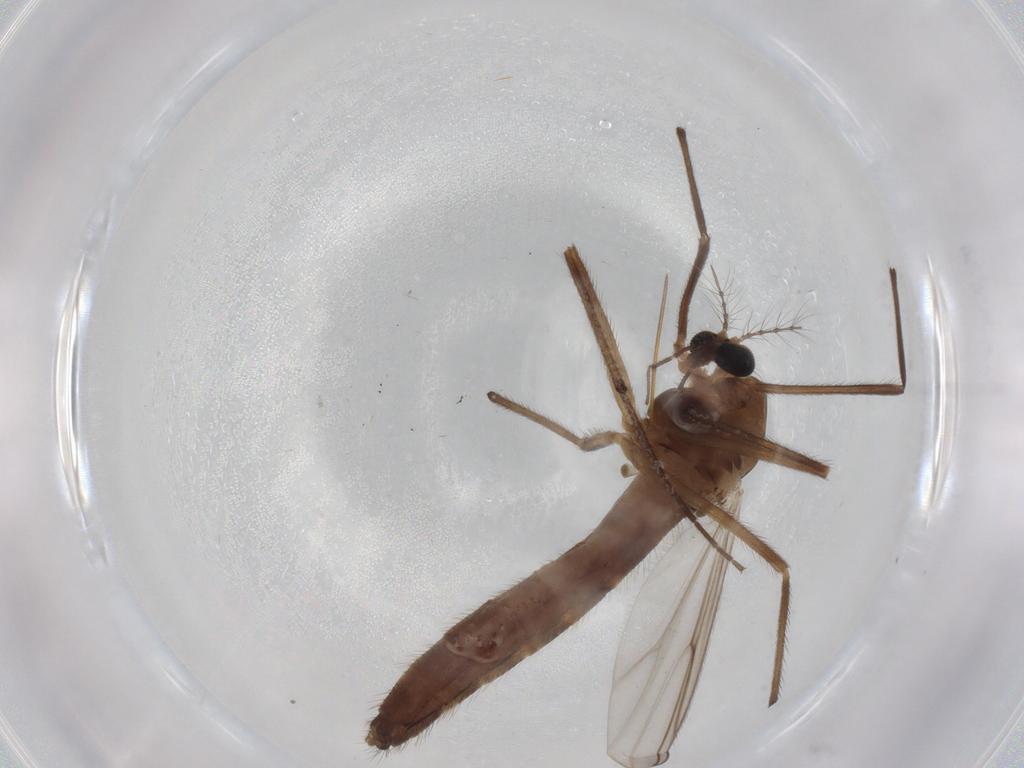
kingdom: Animalia
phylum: Arthropoda
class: Insecta
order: Diptera
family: Chironomidae
